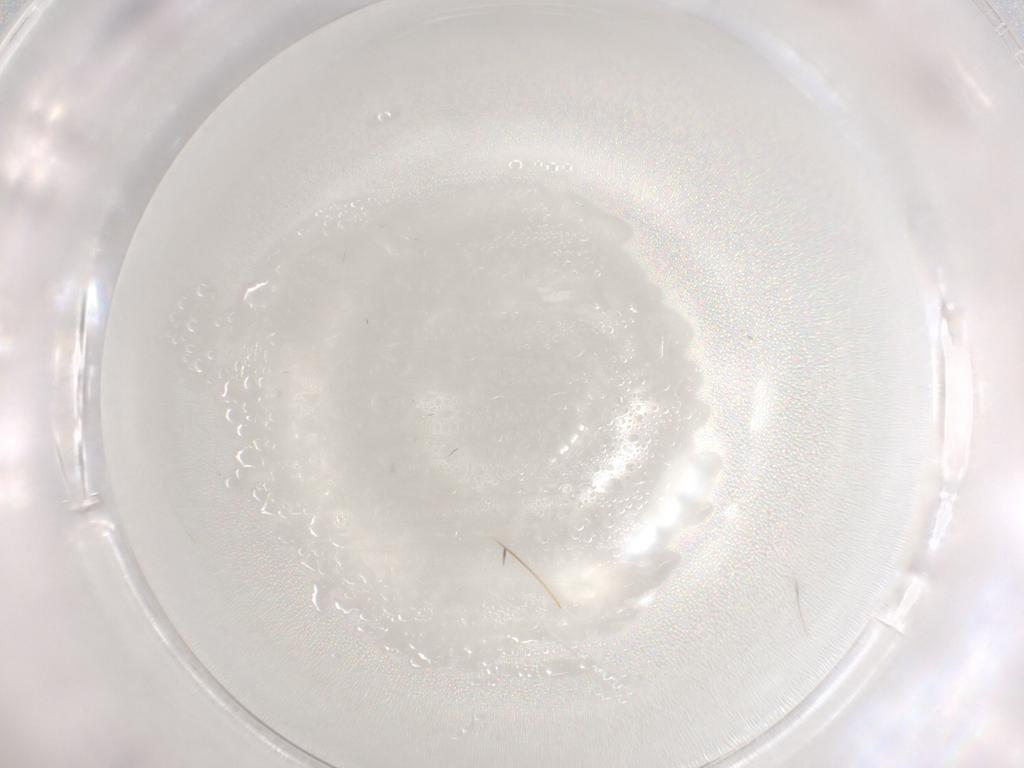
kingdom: Animalia
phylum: Arthropoda
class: Insecta
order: Diptera
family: Chironomidae
